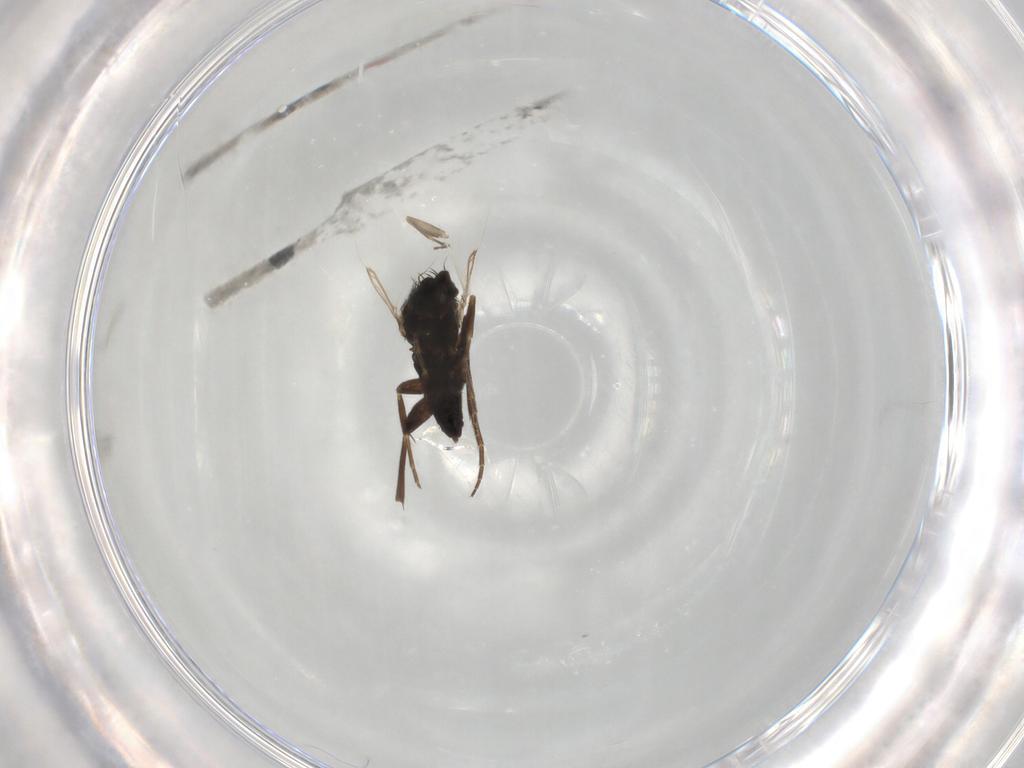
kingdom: Animalia
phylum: Arthropoda
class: Insecta
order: Diptera
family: Phoridae
